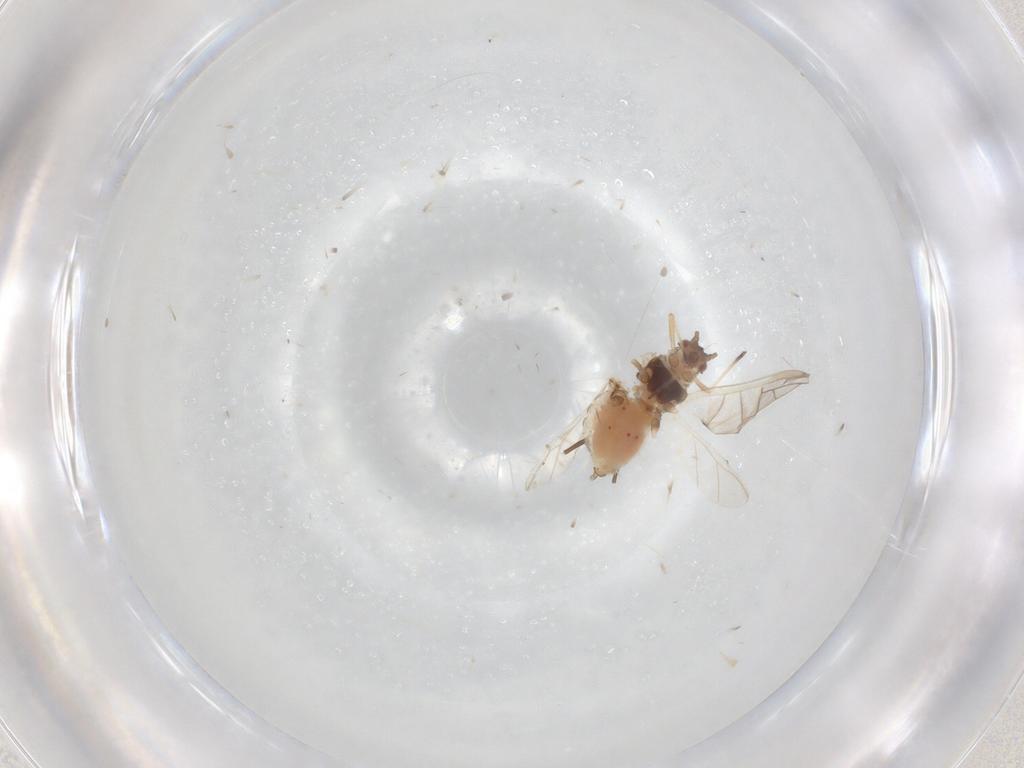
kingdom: Animalia
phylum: Arthropoda
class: Insecta
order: Hemiptera
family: Aphididae
